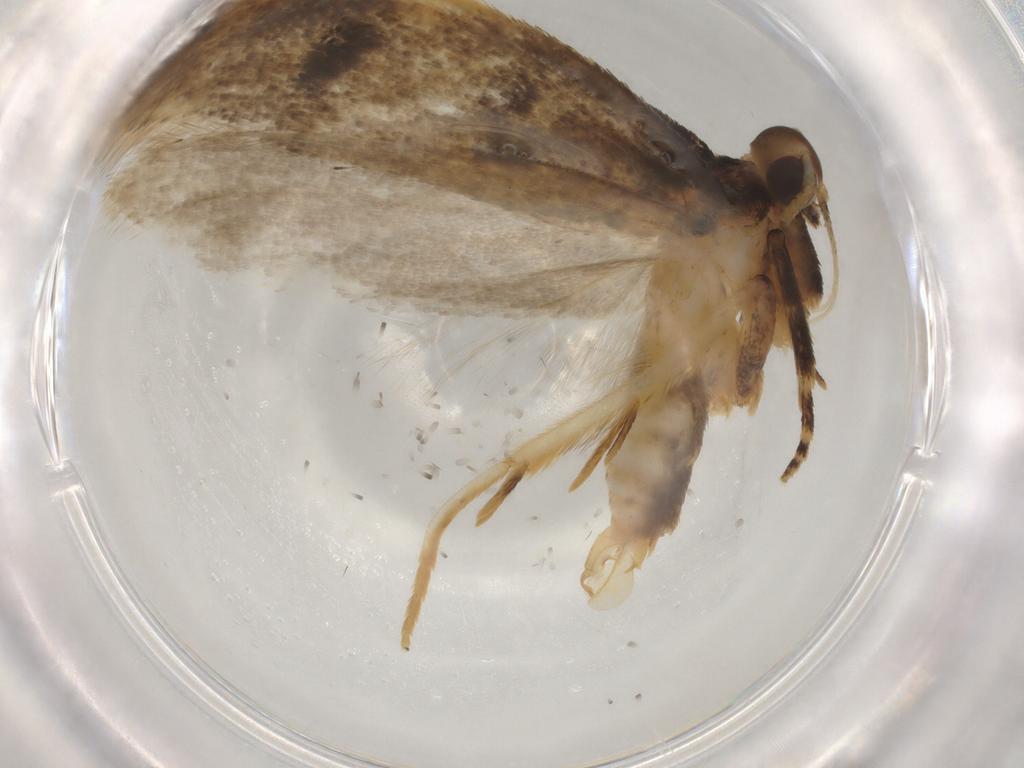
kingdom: Animalia
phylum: Arthropoda
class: Insecta
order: Lepidoptera
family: Gelechiidae
